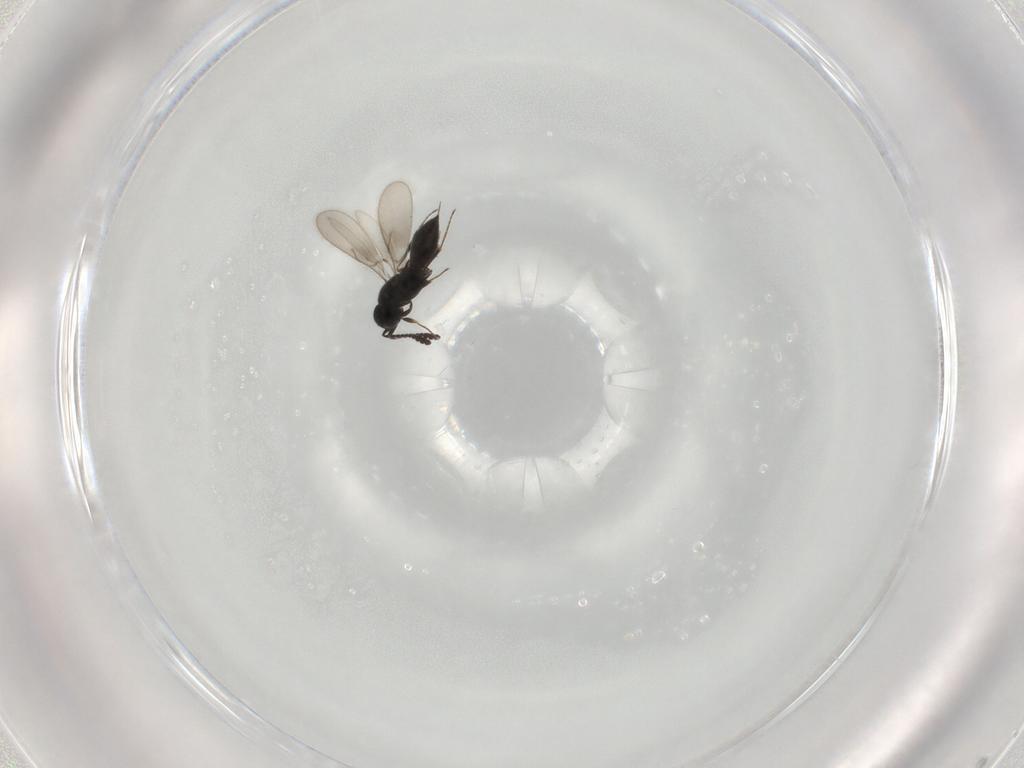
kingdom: Animalia
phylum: Arthropoda
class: Insecta
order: Hymenoptera
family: Scelionidae
